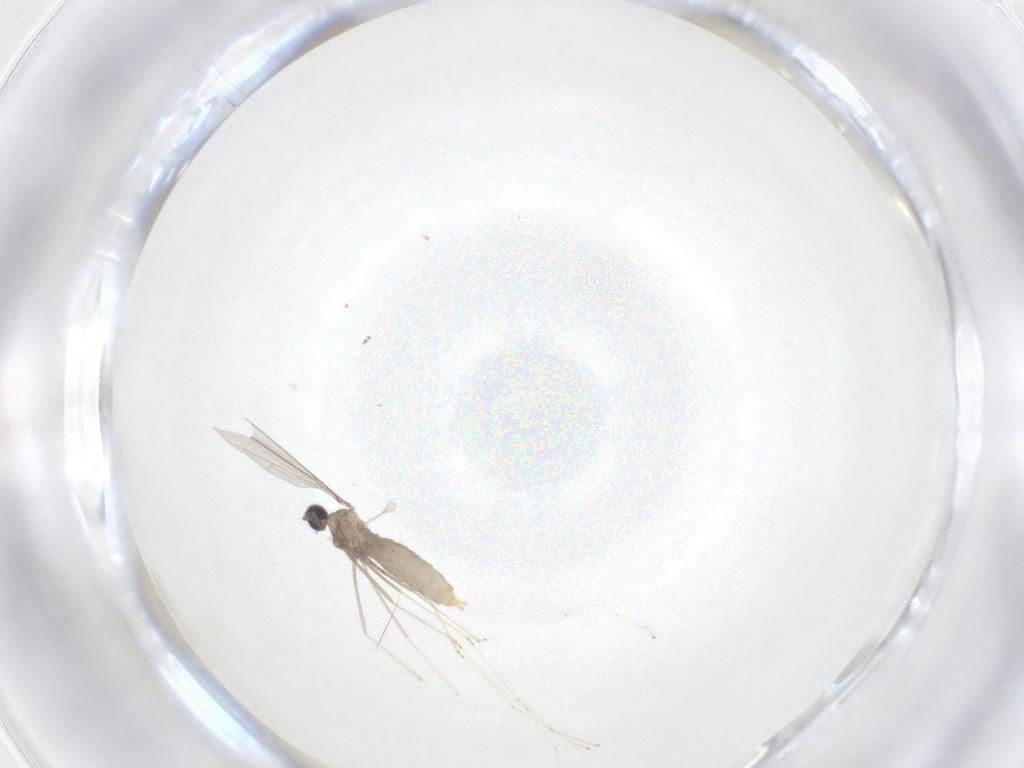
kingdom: Animalia
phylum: Arthropoda
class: Insecta
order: Diptera
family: Cecidomyiidae
